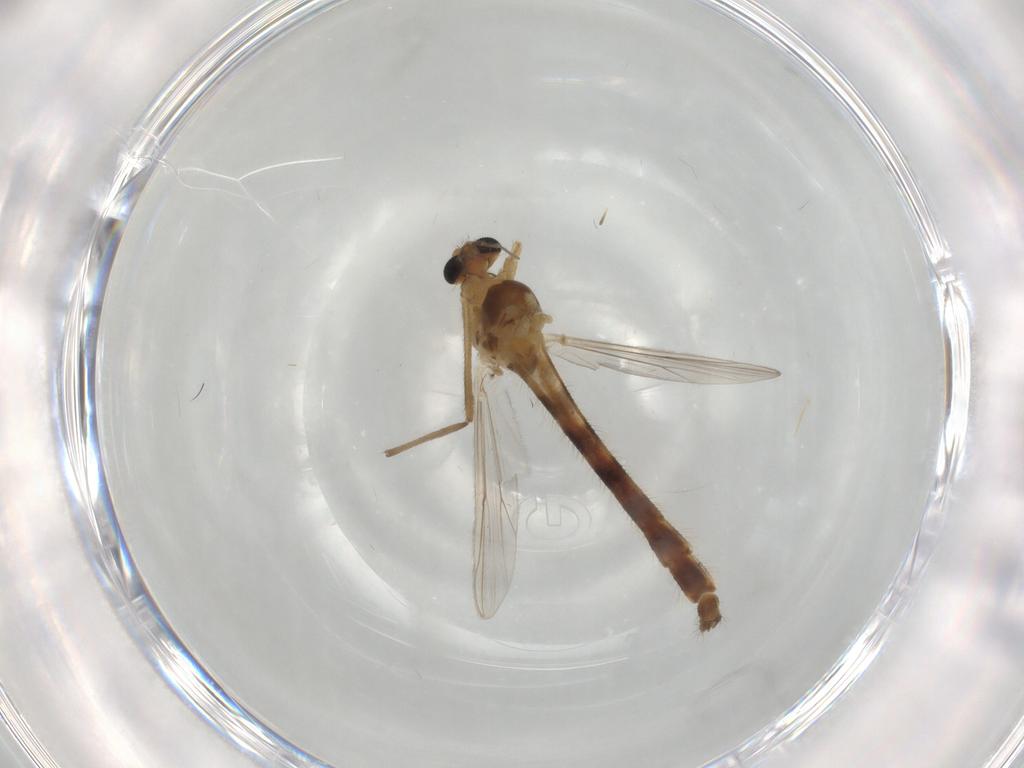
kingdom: Animalia
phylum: Arthropoda
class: Insecta
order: Diptera
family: Chironomidae
